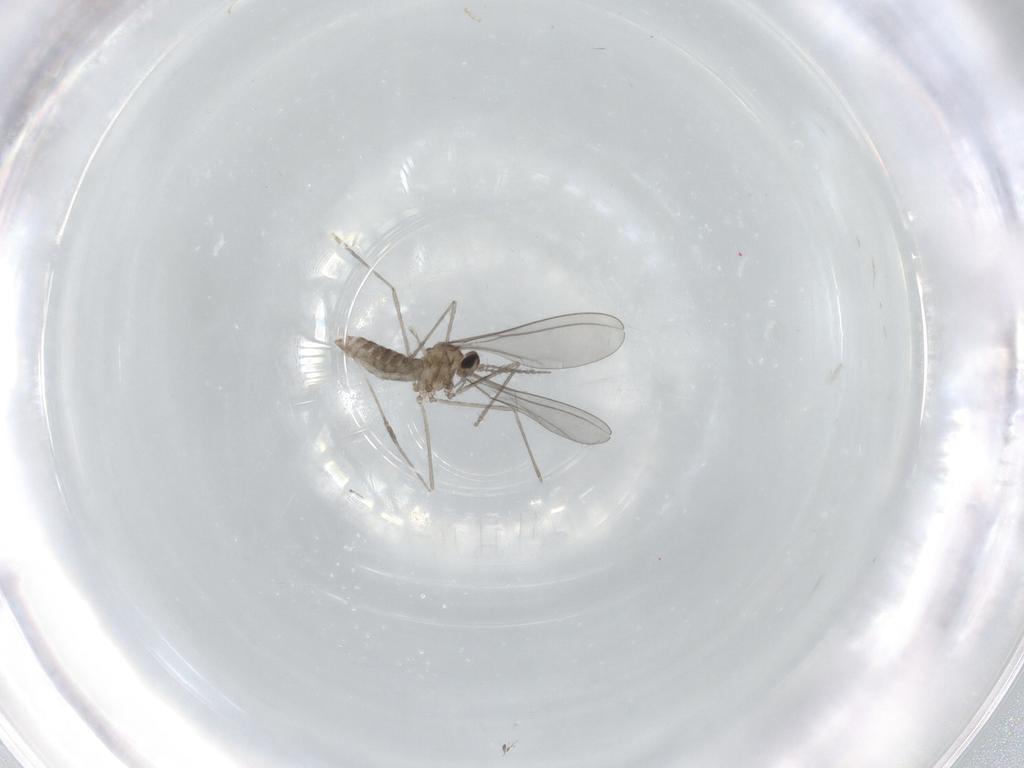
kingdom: Animalia
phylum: Arthropoda
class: Insecta
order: Diptera
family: Cecidomyiidae
